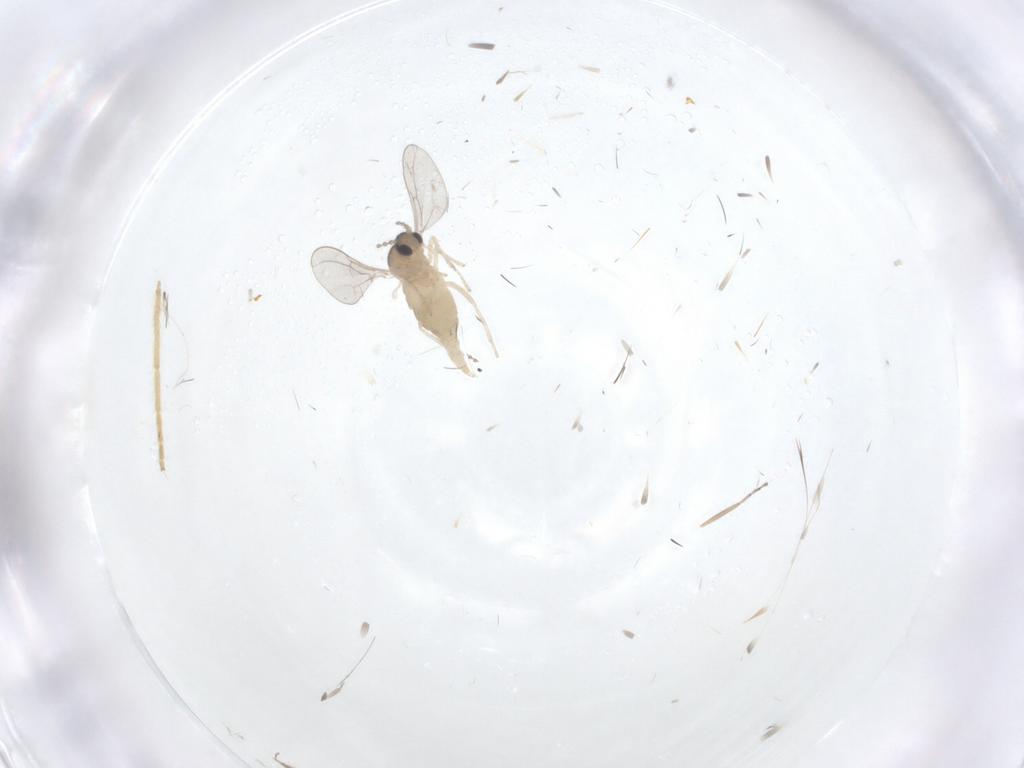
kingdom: Animalia
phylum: Arthropoda
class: Insecta
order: Diptera
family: Cecidomyiidae
